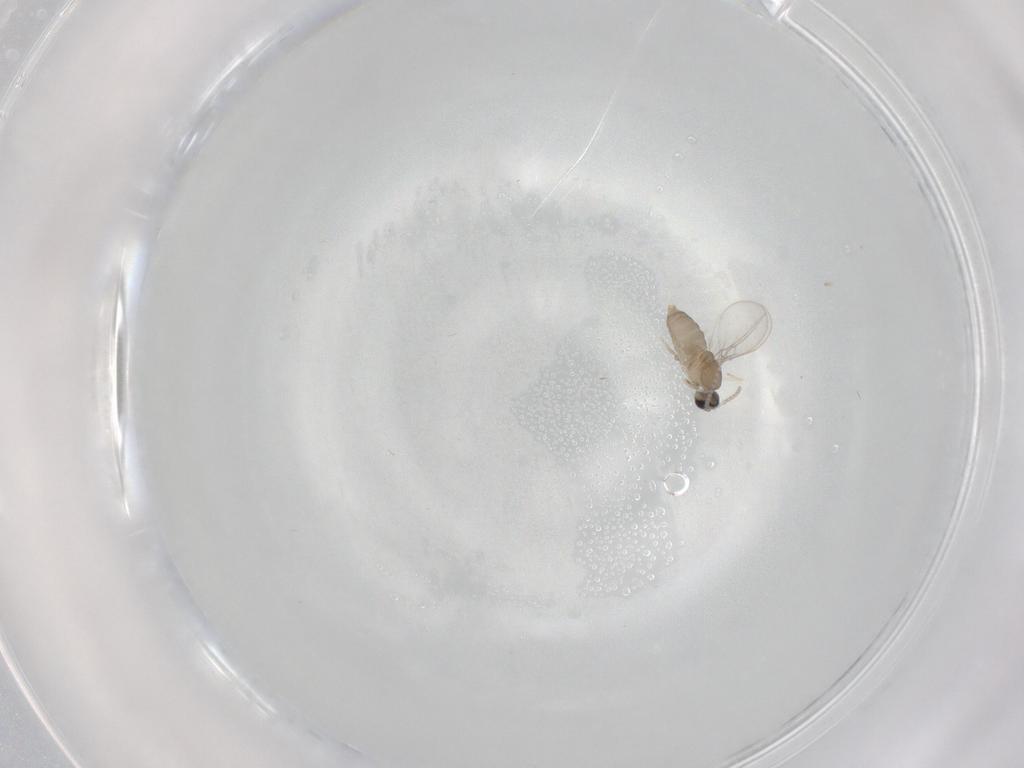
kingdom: Animalia
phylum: Arthropoda
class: Insecta
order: Diptera
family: Cecidomyiidae
